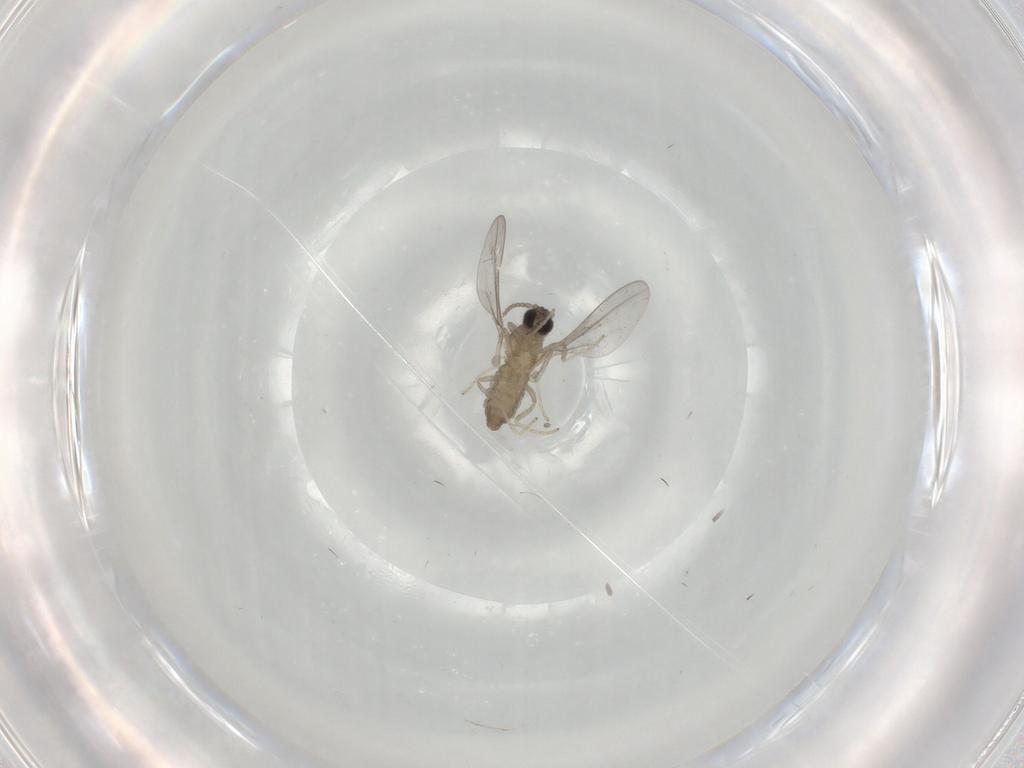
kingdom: Animalia
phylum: Arthropoda
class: Insecta
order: Diptera
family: Cecidomyiidae
